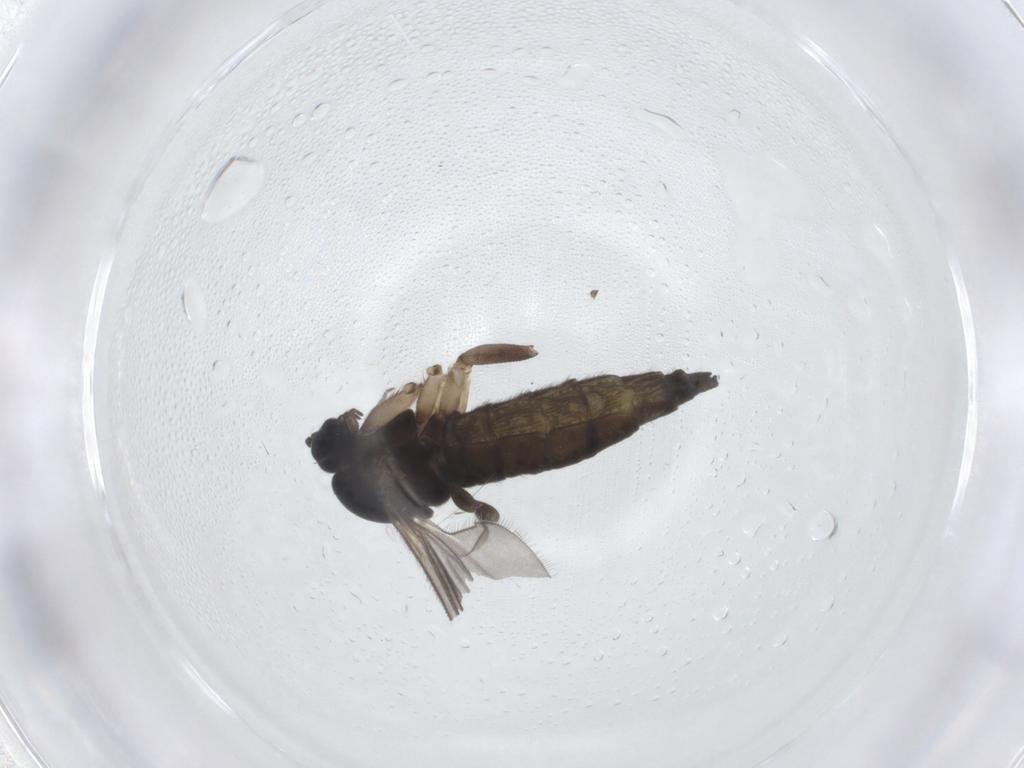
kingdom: Animalia
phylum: Arthropoda
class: Insecta
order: Diptera
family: Sciaridae
